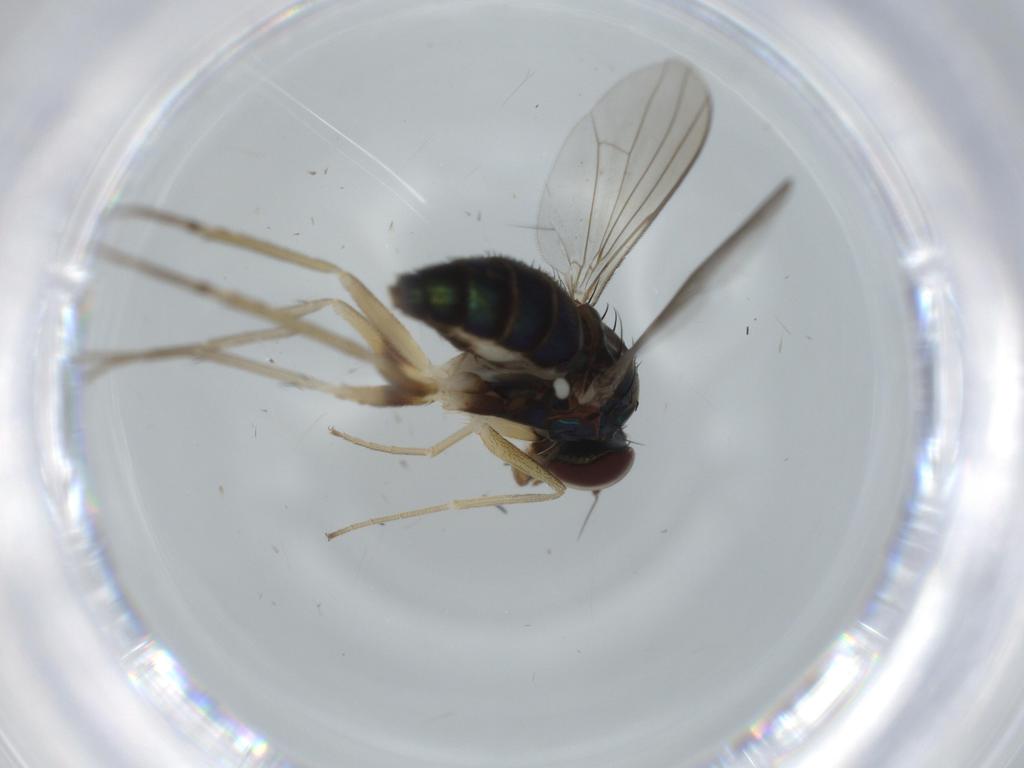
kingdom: Animalia
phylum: Arthropoda
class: Insecta
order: Diptera
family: Dolichopodidae
